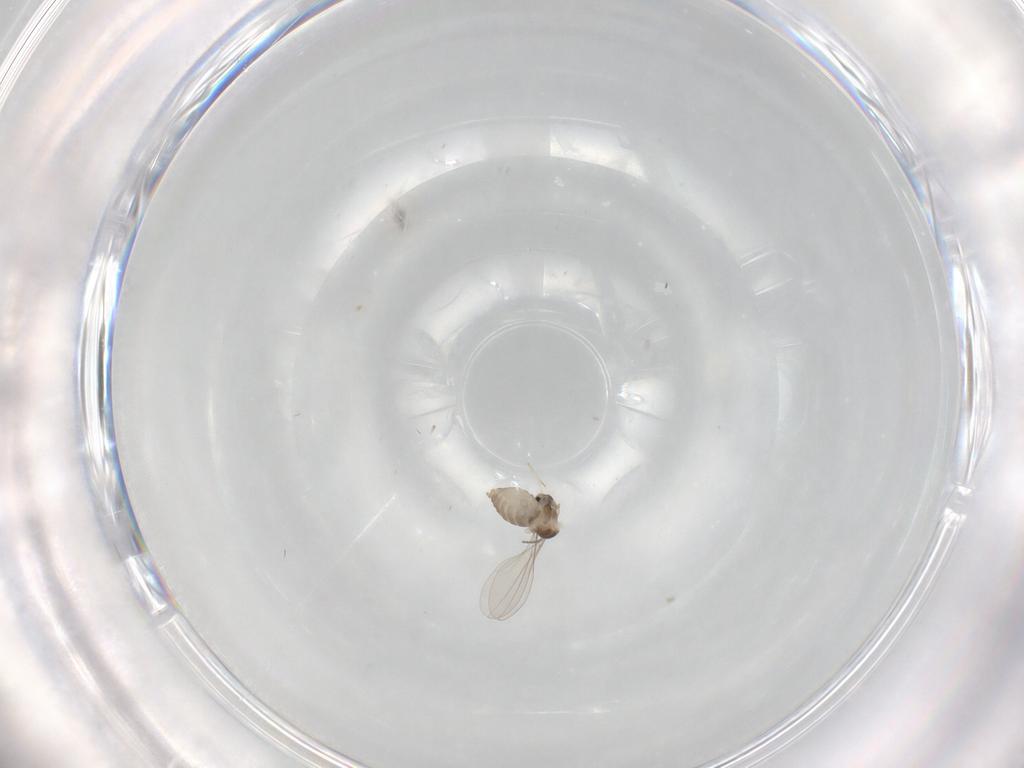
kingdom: Animalia
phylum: Arthropoda
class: Insecta
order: Diptera
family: Cecidomyiidae
